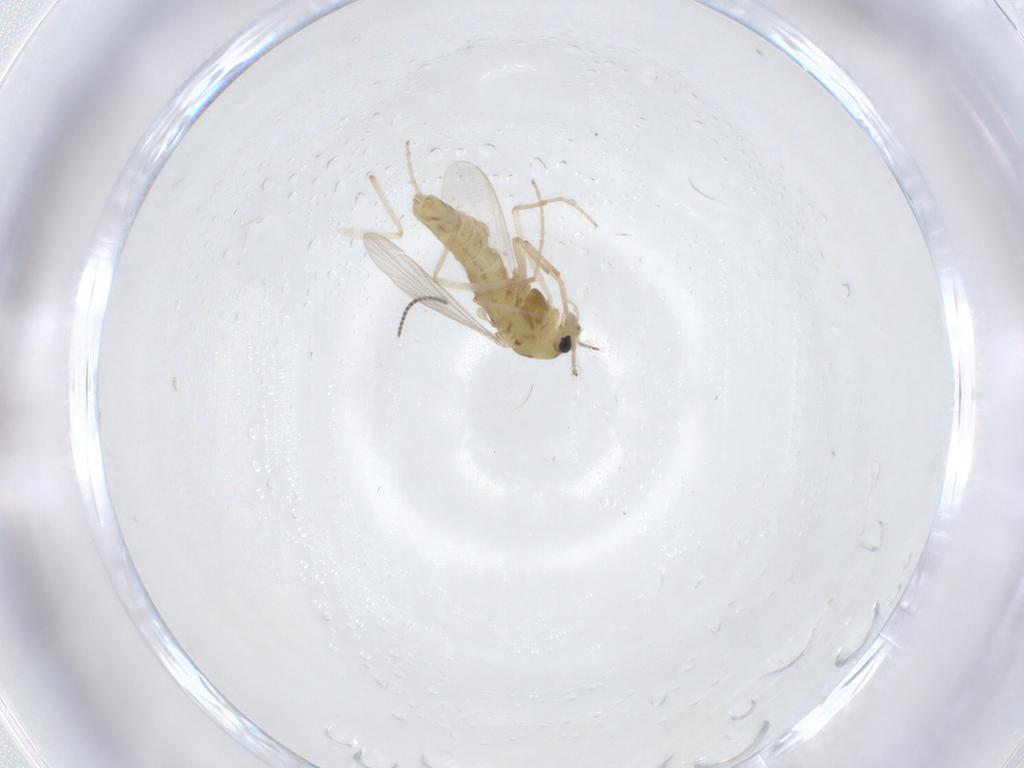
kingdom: Animalia
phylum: Arthropoda
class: Insecta
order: Diptera
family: Chironomidae
